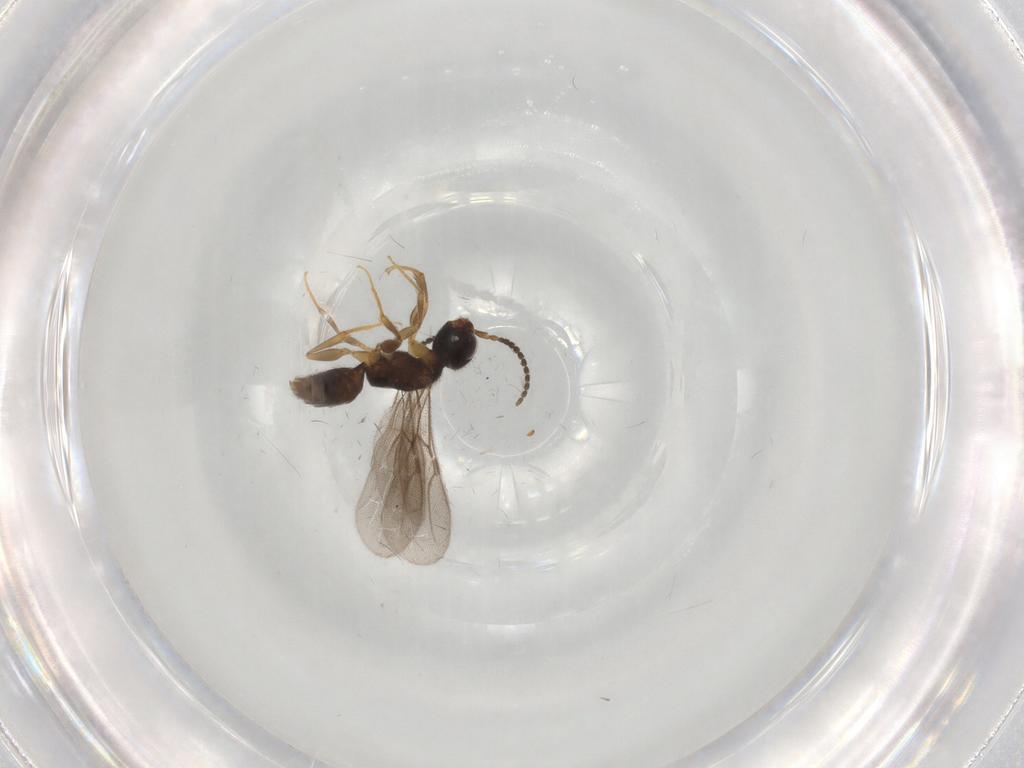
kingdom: Animalia
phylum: Arthropoda
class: Insecta
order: Hymenoptera
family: Bethylidae
